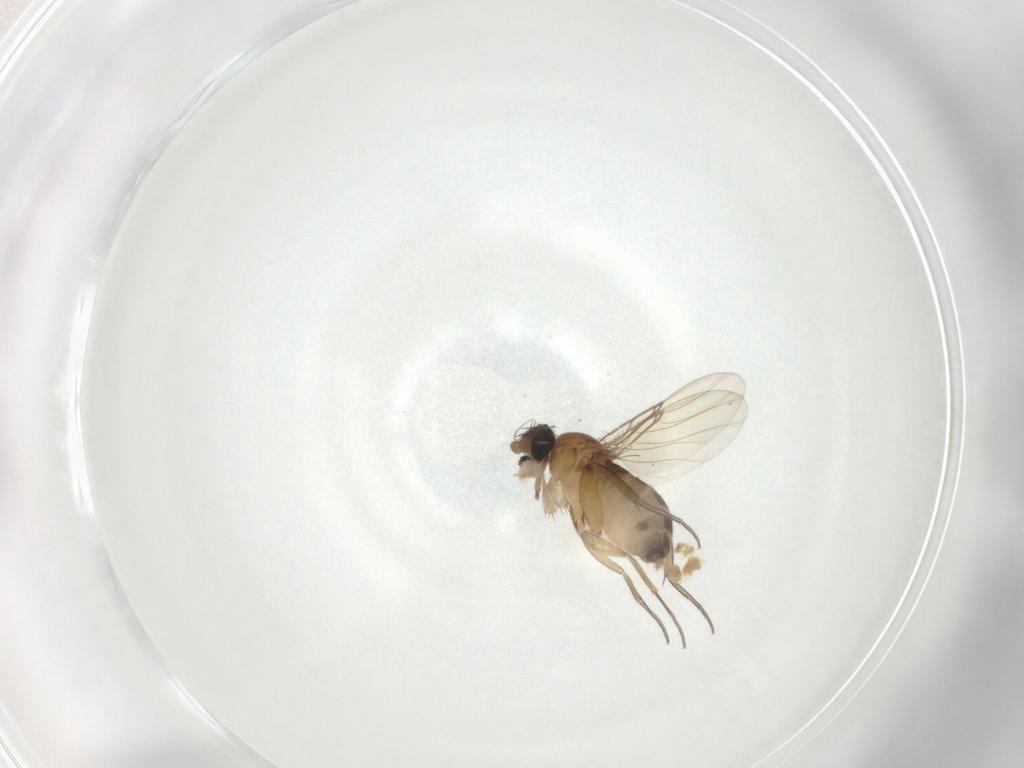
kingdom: Animalia
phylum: Arthropoda
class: Insecta
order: Diptera
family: Phoridae
